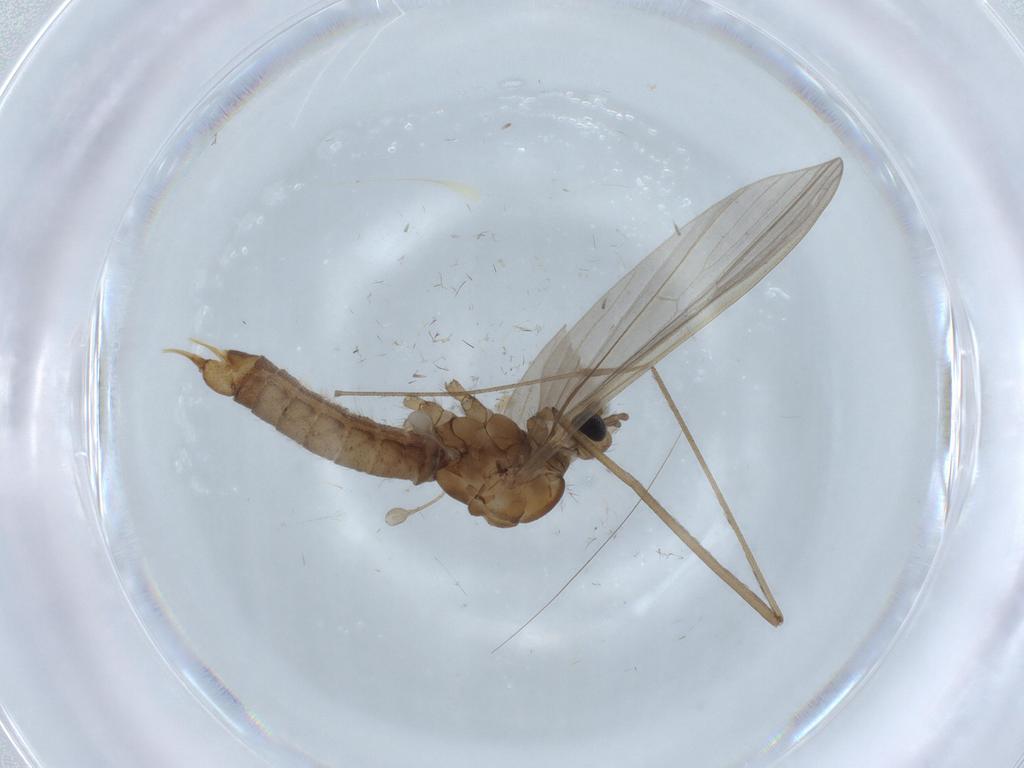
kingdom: Animalia
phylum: Arthropoda
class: Insecta
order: Diptera
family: Limoniidae
